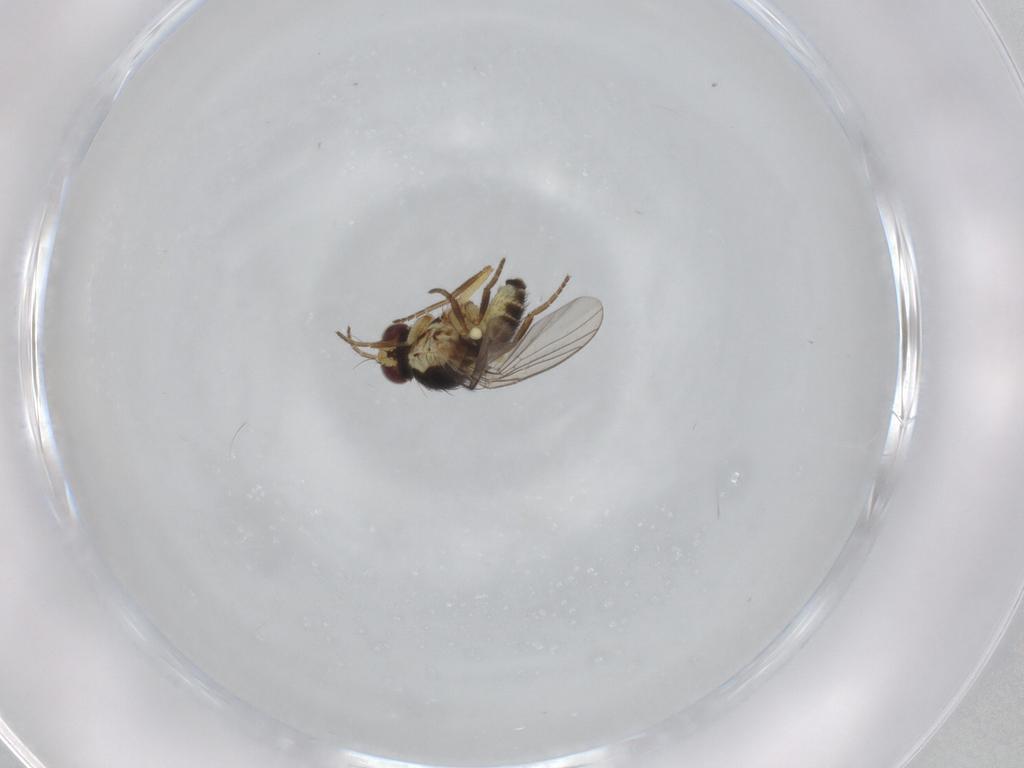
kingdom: Animalia
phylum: Arthropoda
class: Insecta
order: Diptera
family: Agromyzidae
